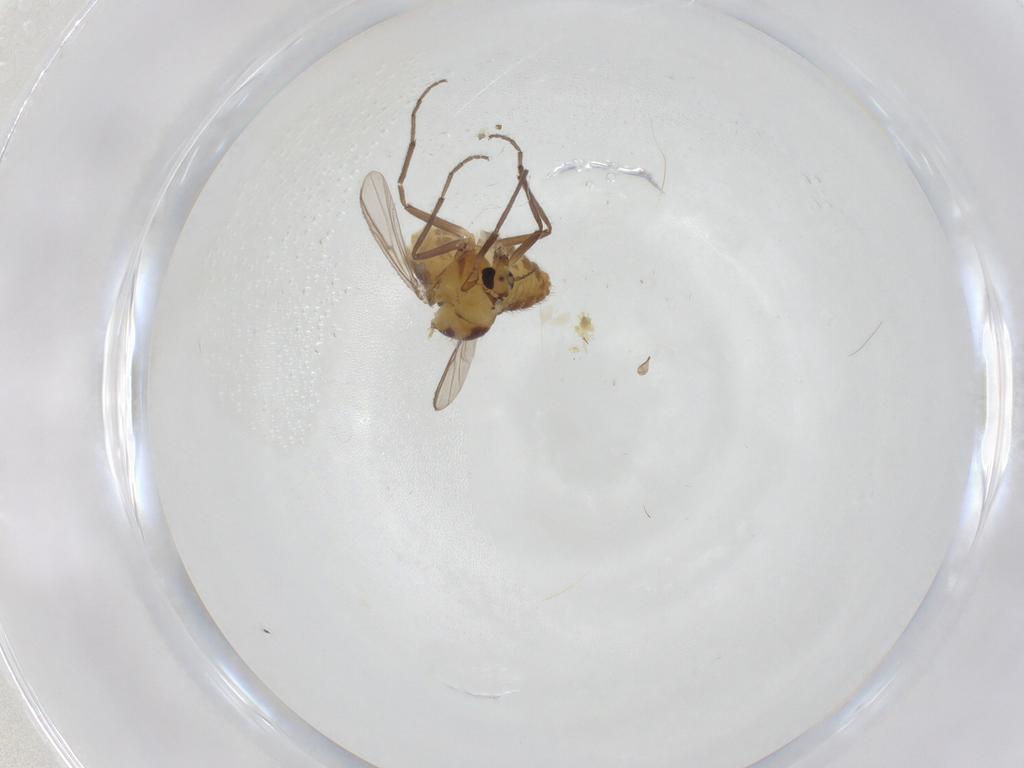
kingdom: Animalia
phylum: Arthropoda
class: Insecta
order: Diptera
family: Chironomidae
